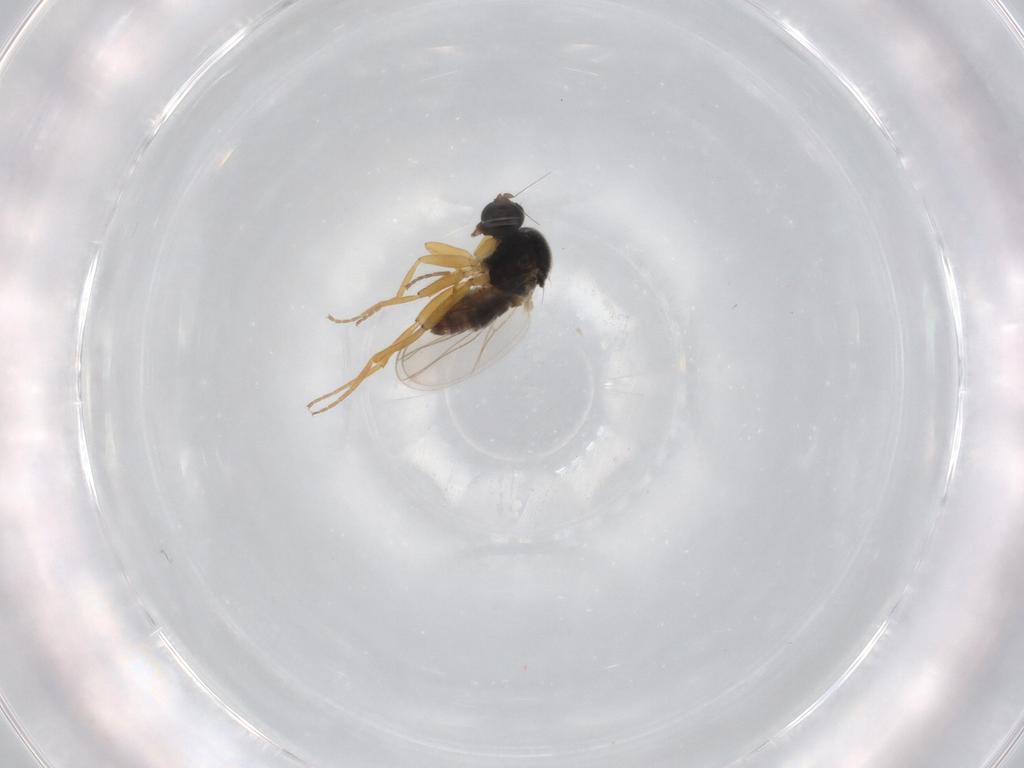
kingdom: Animalia
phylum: Arthropoda
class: Insecta
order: Diptera
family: Hybotidae
